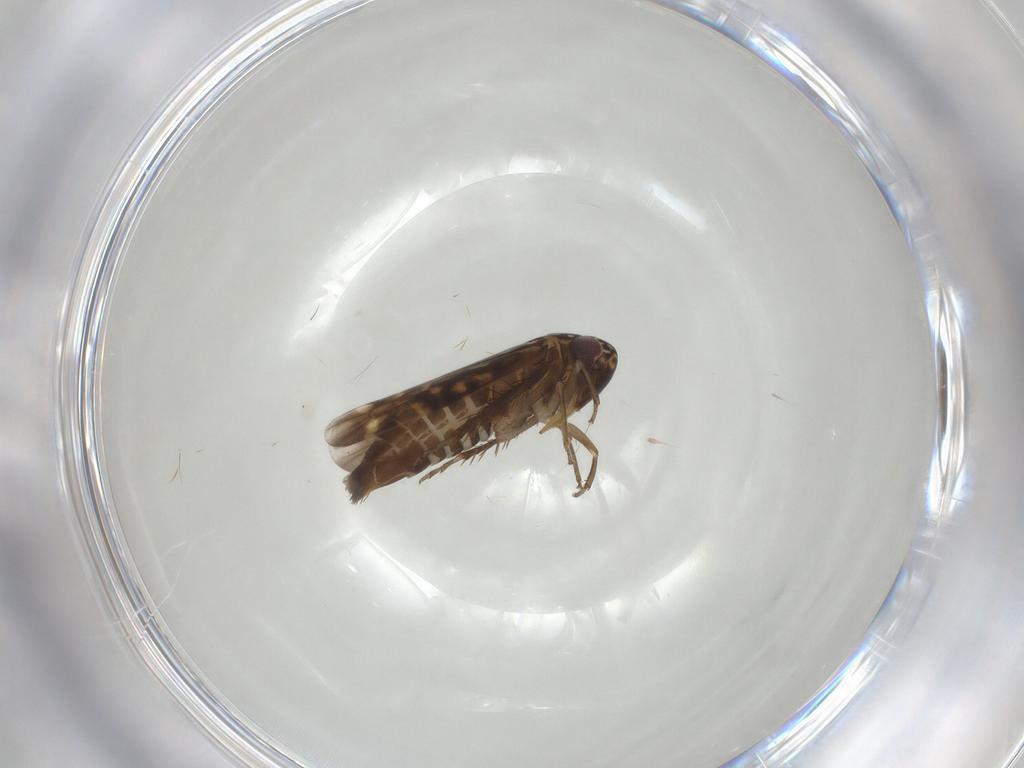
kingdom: Animalia
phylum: Arthropoda
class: Insecta
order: Hemiptera
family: Cicadellidae
